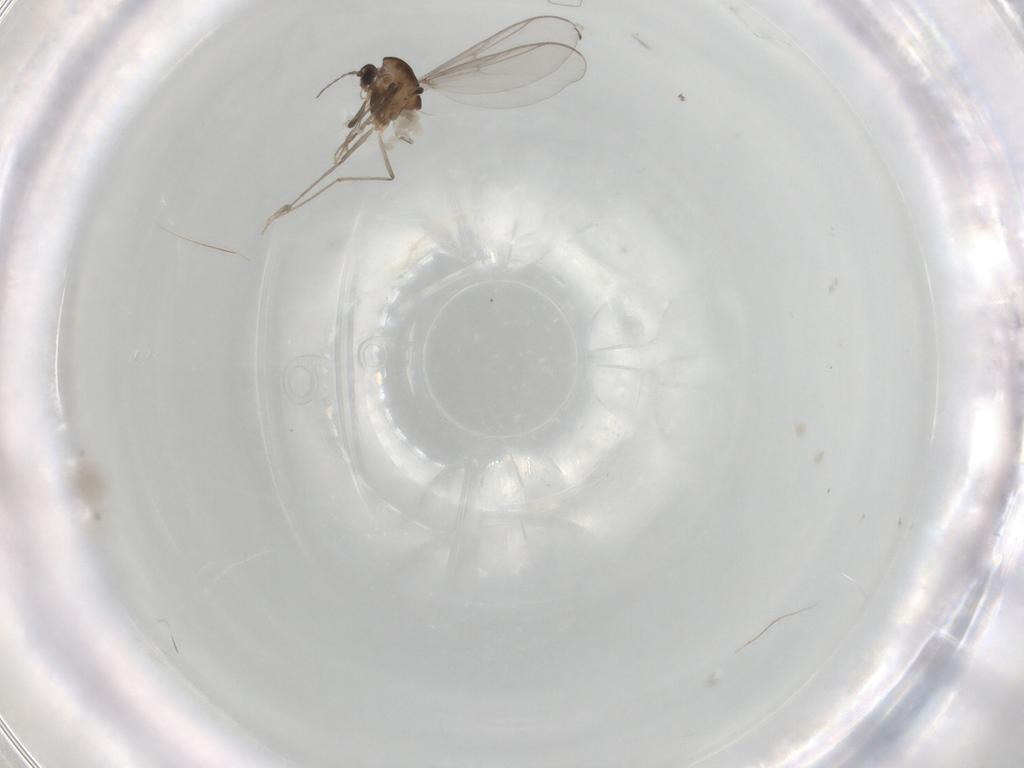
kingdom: Animalia
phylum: Arthropoda
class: Insecta
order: Diptera
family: Chironomidae
